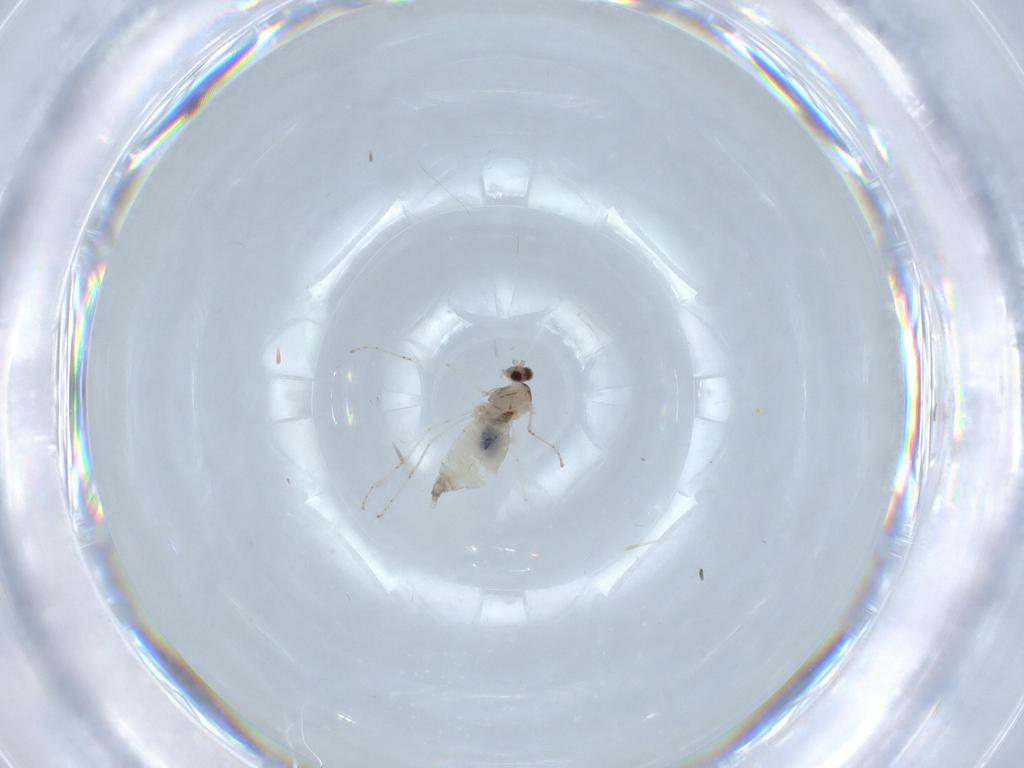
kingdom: Animalia
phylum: Arthropoda
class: Insecta
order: Diptera
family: Cecidomyiidae
